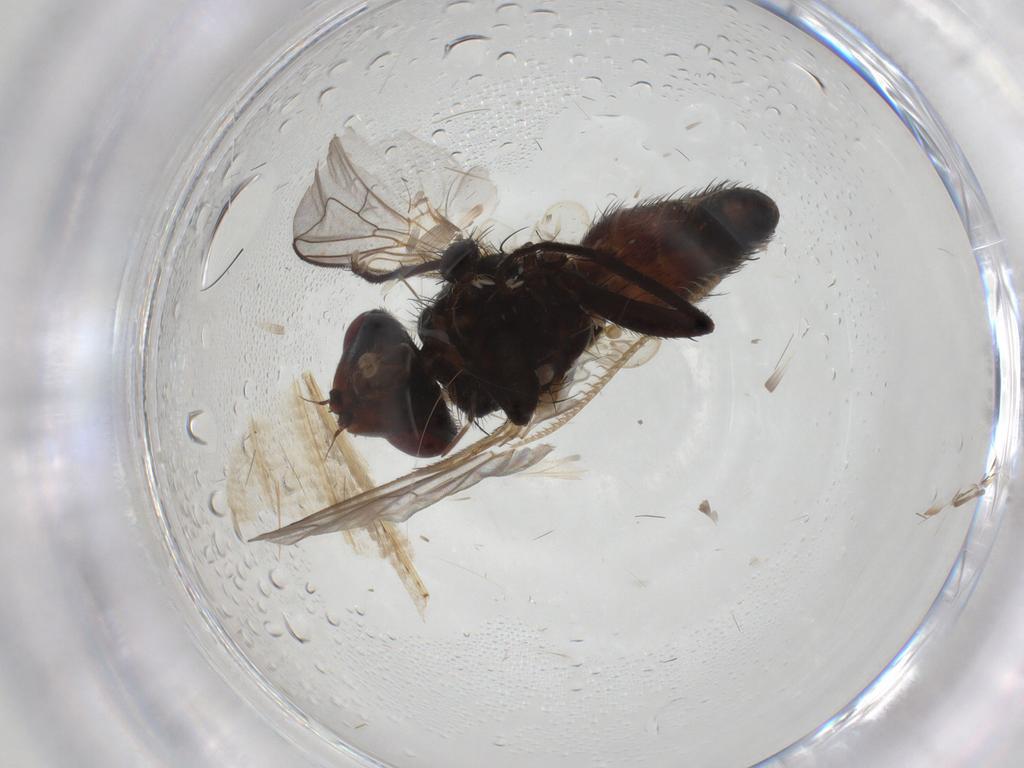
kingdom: Animalia
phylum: Arthropoda
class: Insecta
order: Diptera
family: Sarcophagidae
